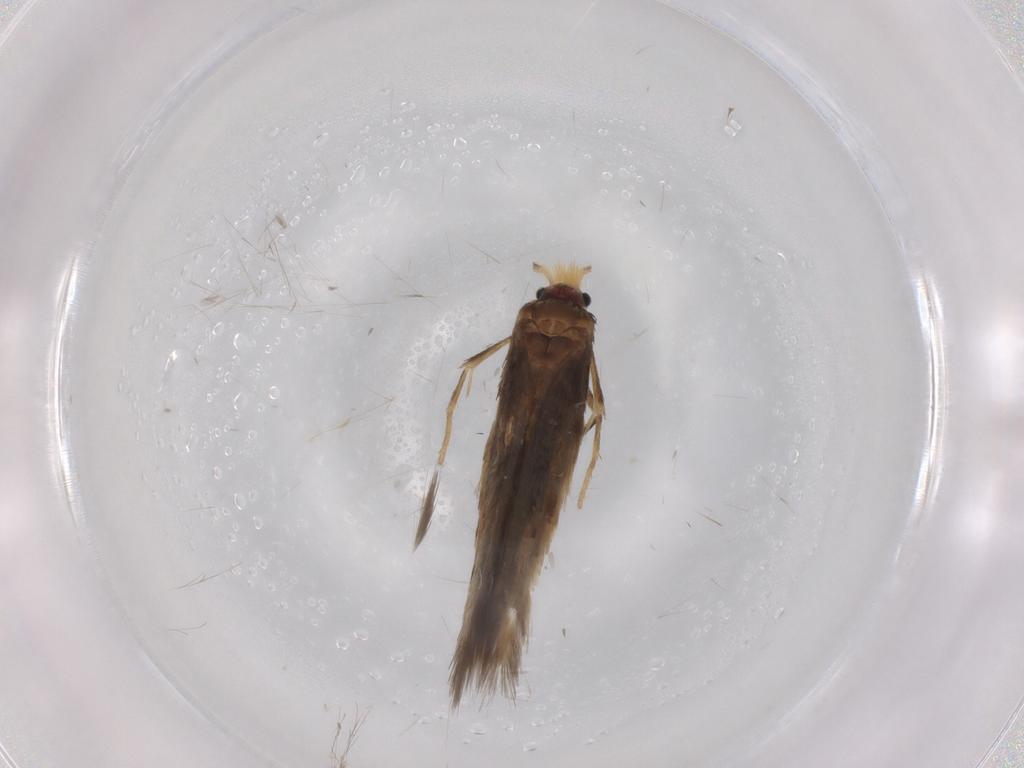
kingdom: Animalia
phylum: Arthropoda
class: Insecta
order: Lepidoptera
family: Nepticulidae
